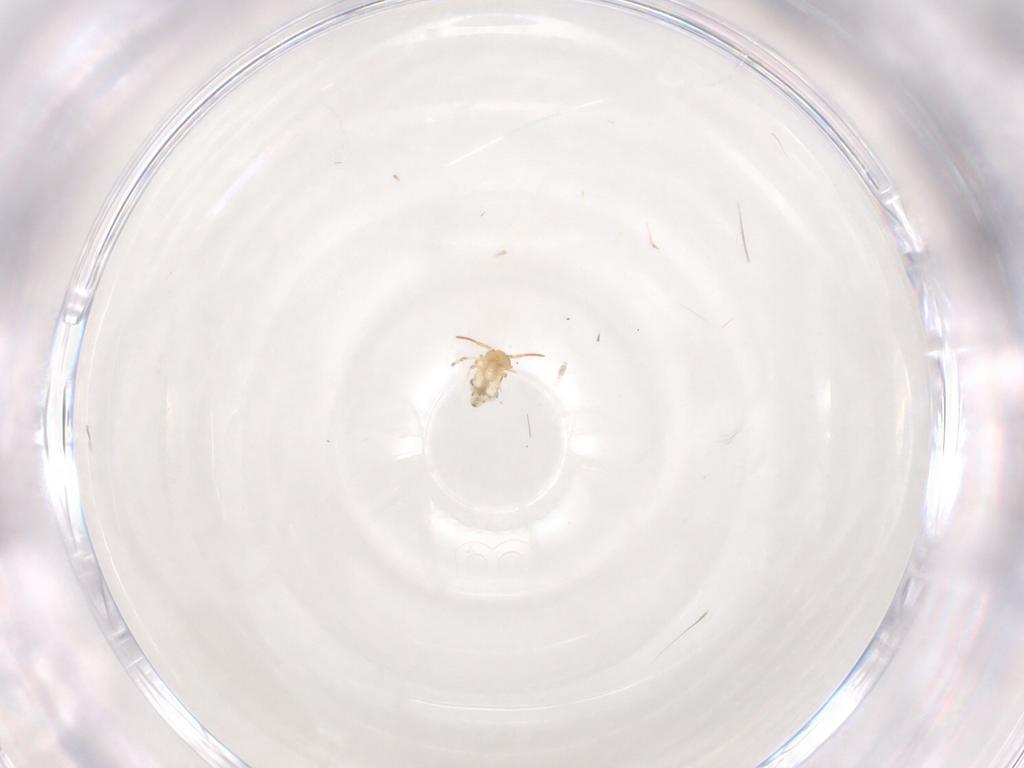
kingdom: Animalia
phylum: Arthropoda
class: Collembola
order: Symphypleona
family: Bourletiellidae
